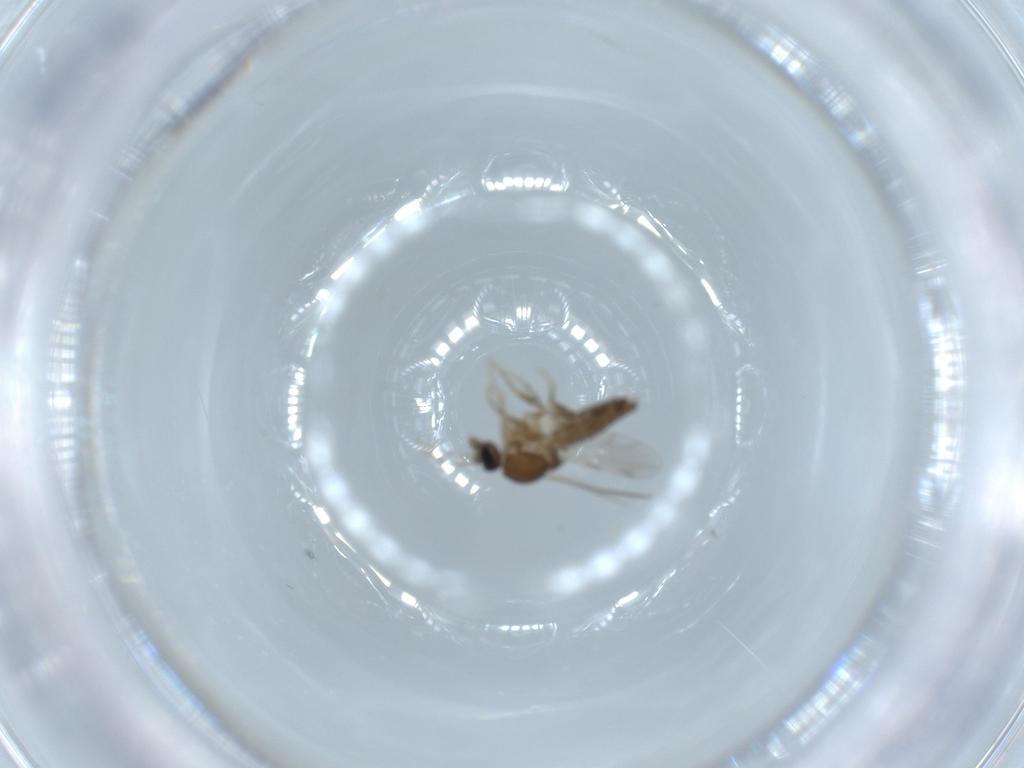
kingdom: Animalia
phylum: Arthropoda
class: Insecta
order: Diptera
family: Ceratopogonidae
